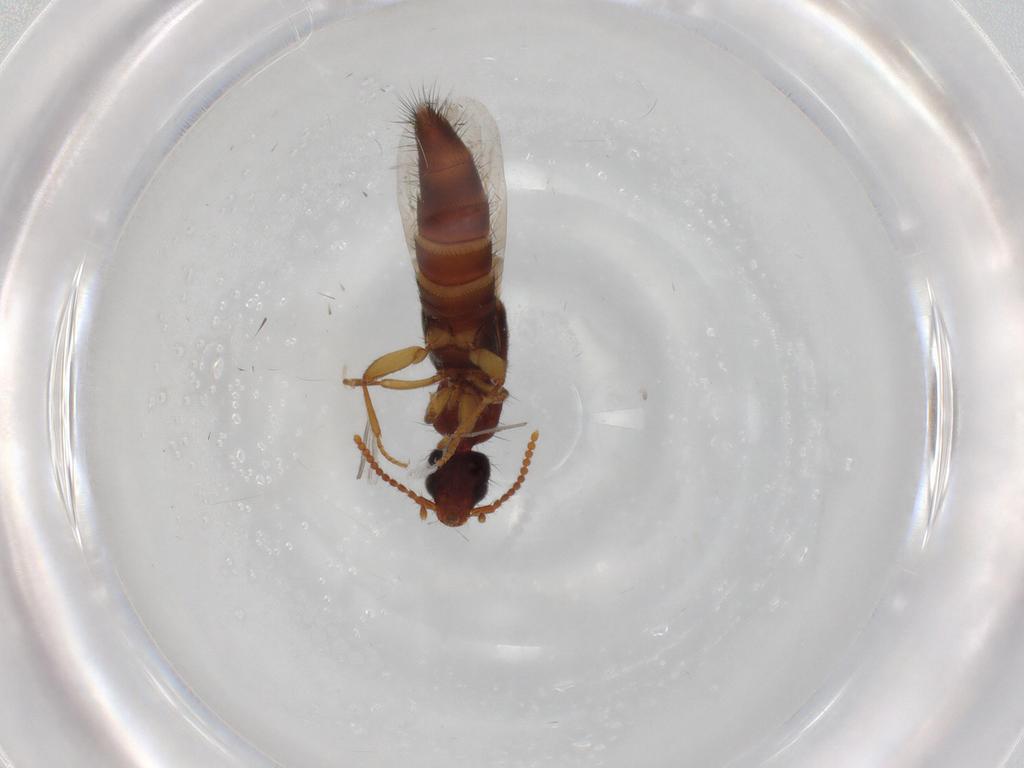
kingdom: Animalia
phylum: Arthropoda
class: Insecta
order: Coleoptera
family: Staphylinidae
